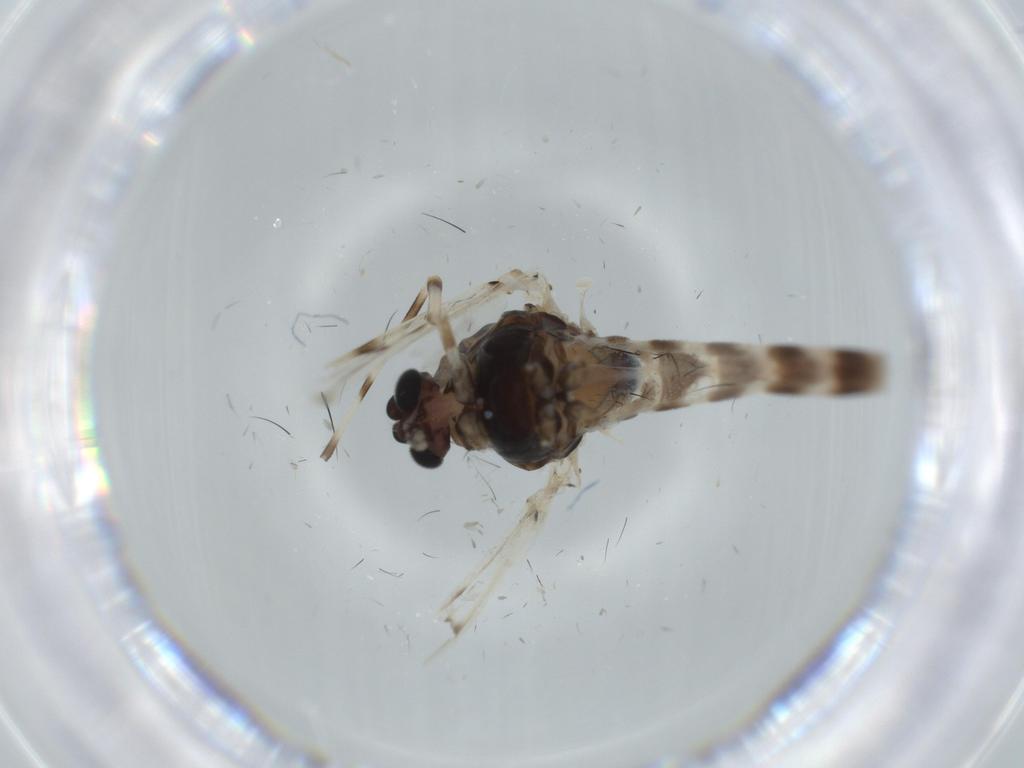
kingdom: Animalia
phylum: Arthropoda
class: Insecta
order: Diptera
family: Chironomidae
